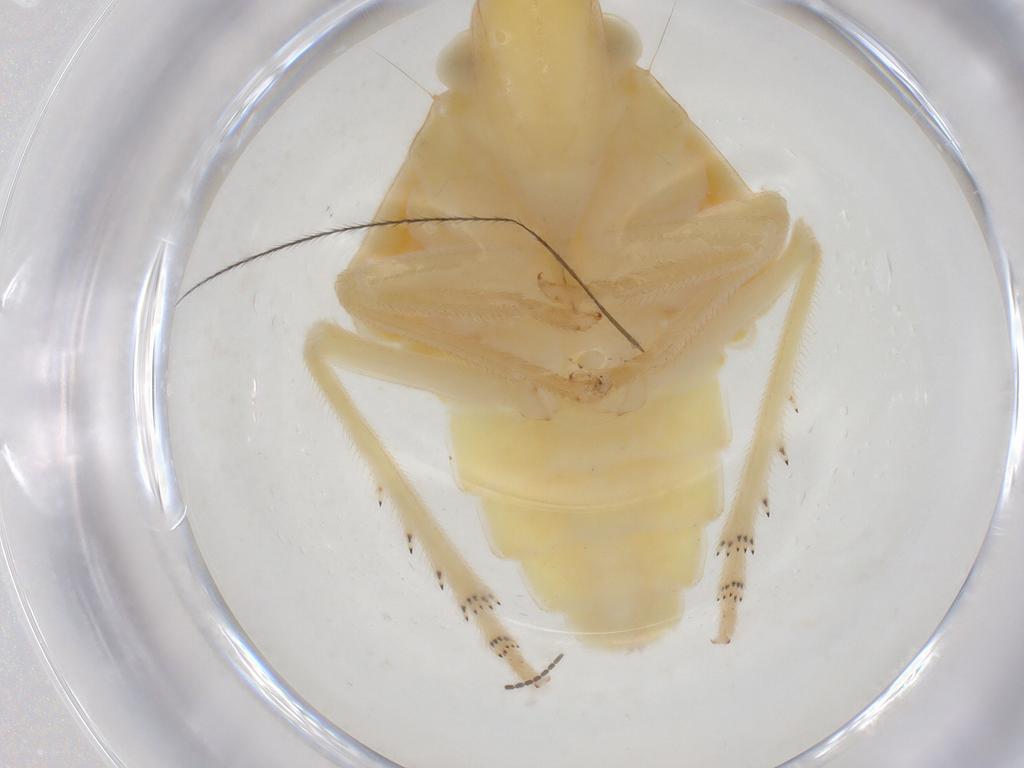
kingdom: Animalia
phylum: Arthropoda
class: Insecta
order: Hemiptera
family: Tropiduchidae
